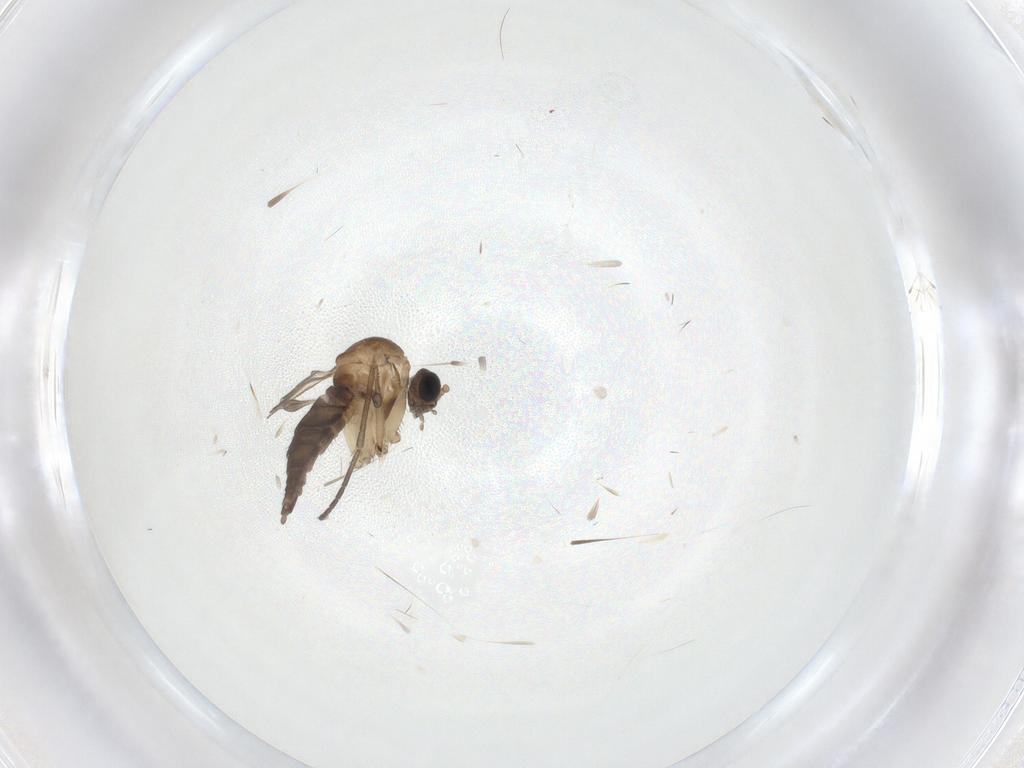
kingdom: Animalia
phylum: Arthropoda
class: Insecta
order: Diptera
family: Sciaridae
